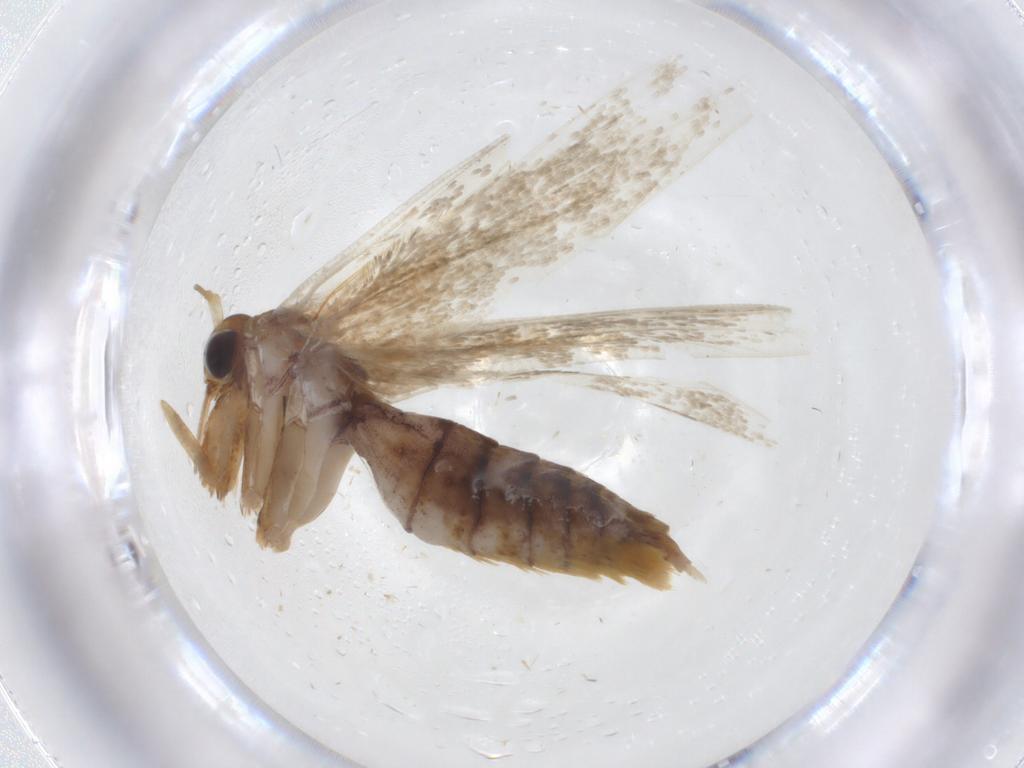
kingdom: Animalia
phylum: Arthropoda
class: Insecta
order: Lepidoptera
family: Blastobasidae
